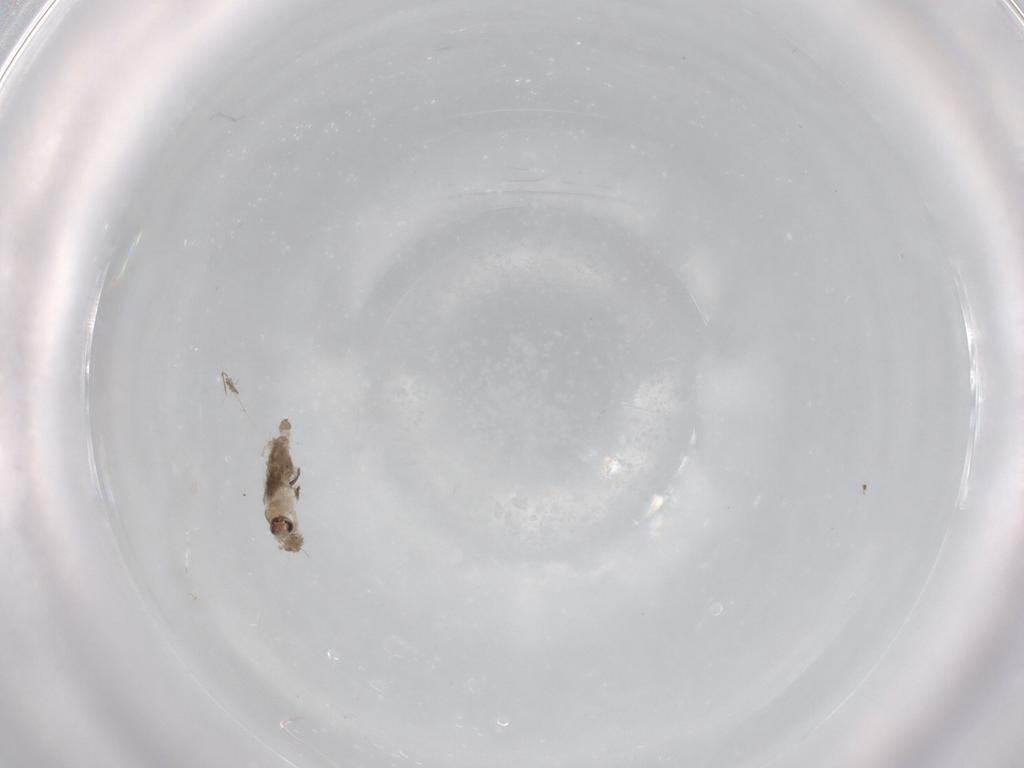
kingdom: Animalia
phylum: Arthropoda
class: Insecta
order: Diptera
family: Cecidomyiidae
